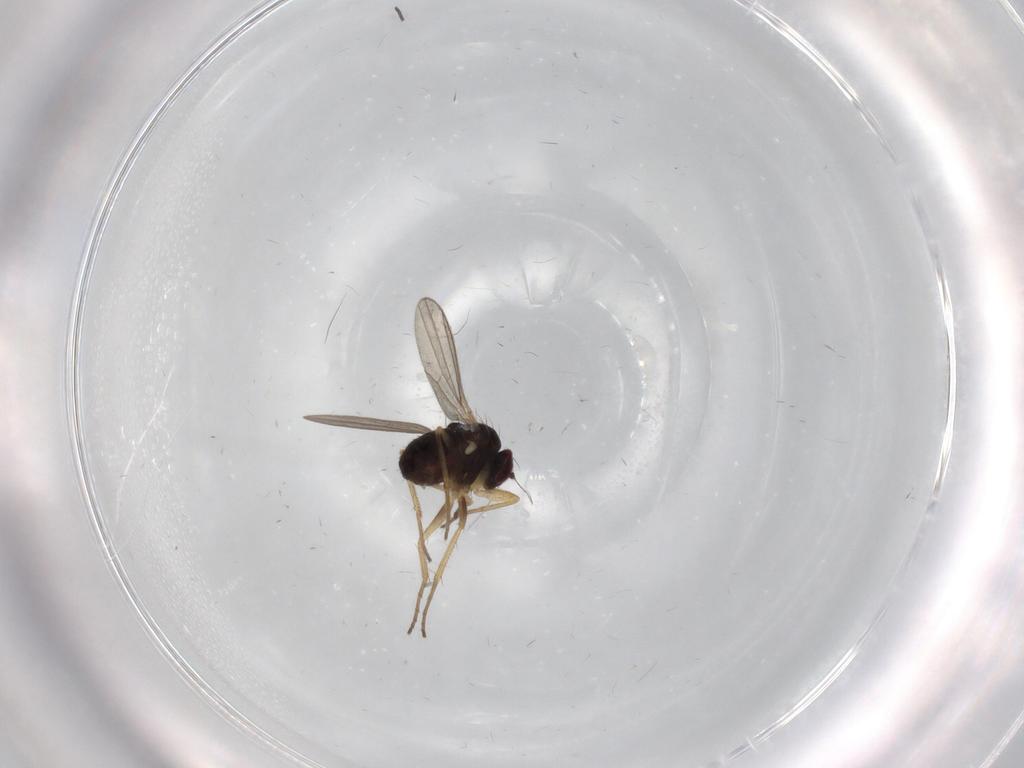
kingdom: Animalia
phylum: Arthropoda
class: Insecta
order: Diptera
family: Dolichopodidae
